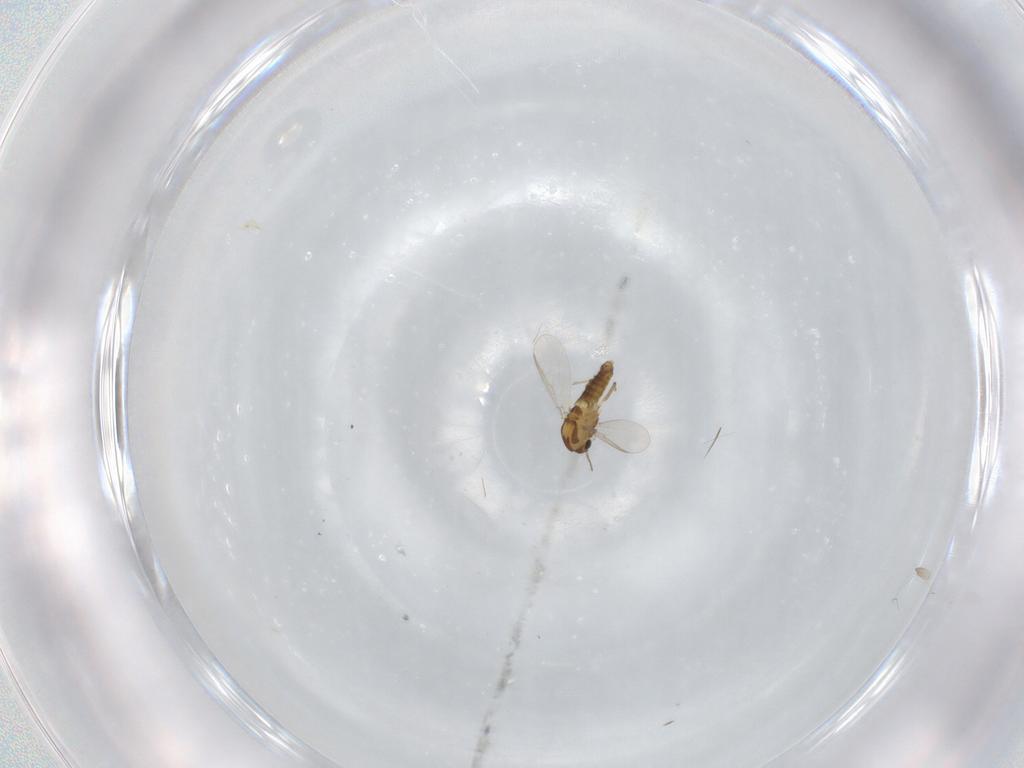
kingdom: Animalia
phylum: Arthropoda
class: Insecta
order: Diptera
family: Chironomidae
